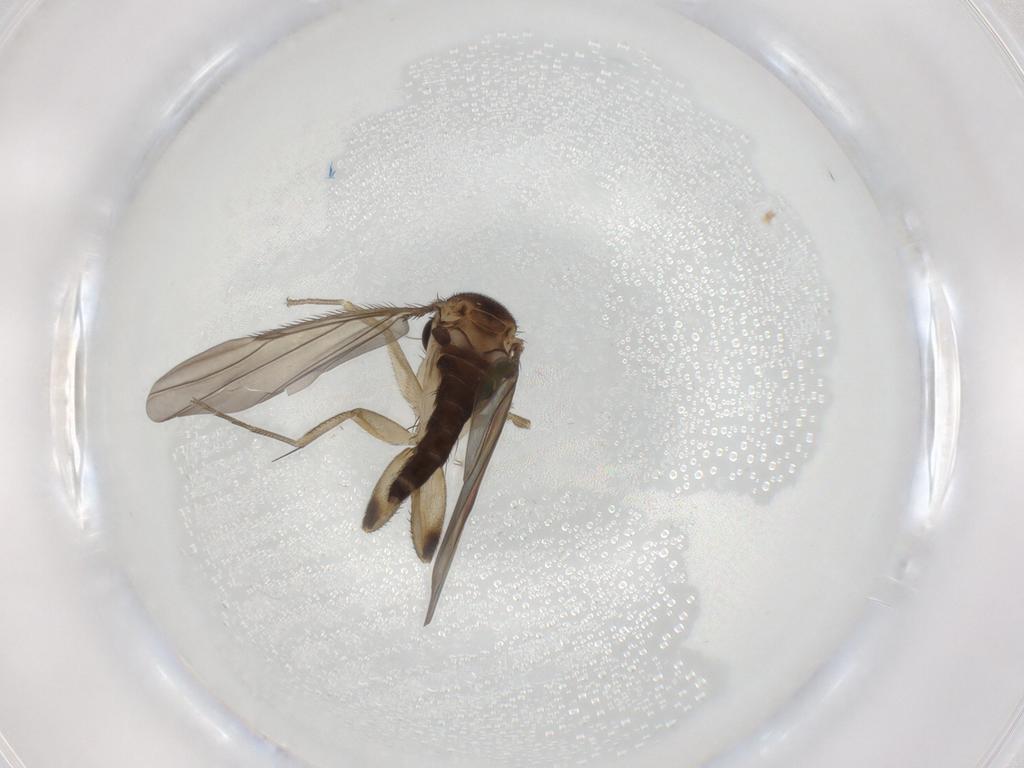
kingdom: Animalia
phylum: Arthropoda
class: Insecta
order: Diptera
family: Phoridae
